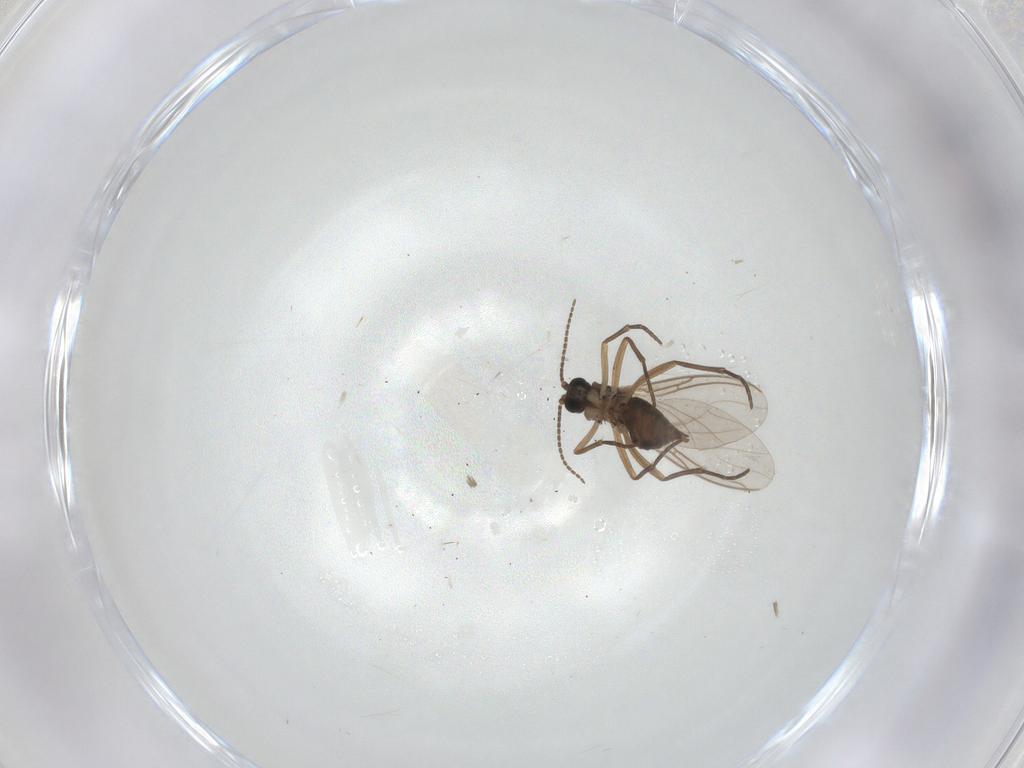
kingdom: Animalia
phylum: Arthropoda
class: Insecta
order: Diptera
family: Sciaridae
